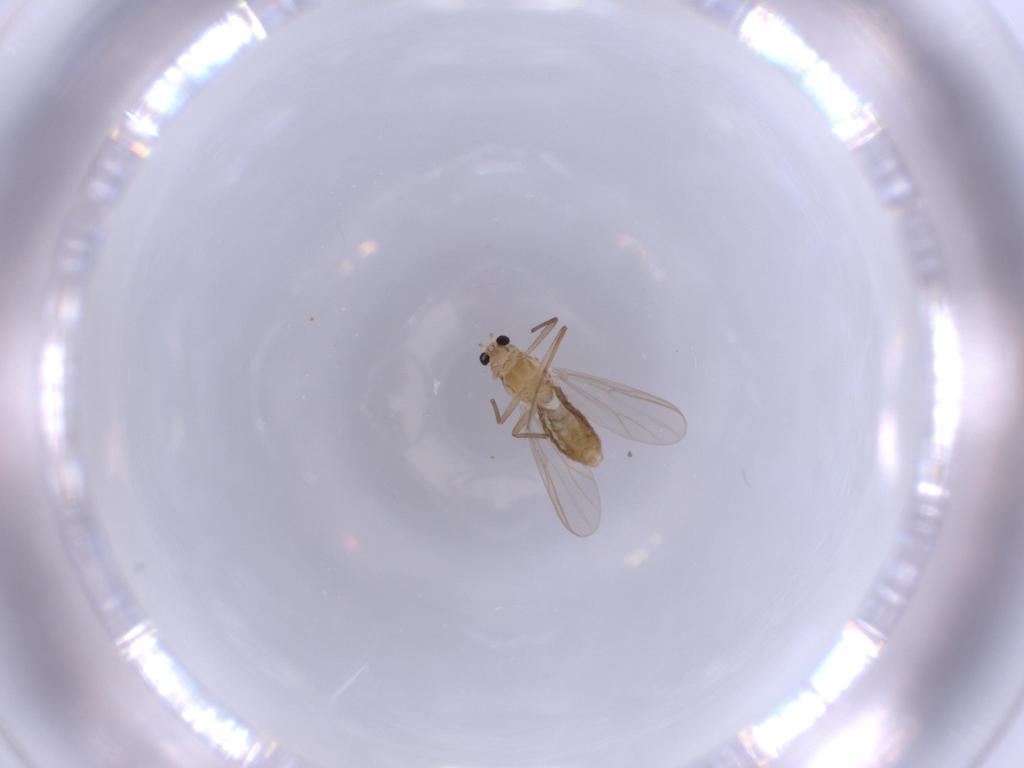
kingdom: Animalia
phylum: Arthropoda
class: Insecta
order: Diptera
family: Chironomidae
